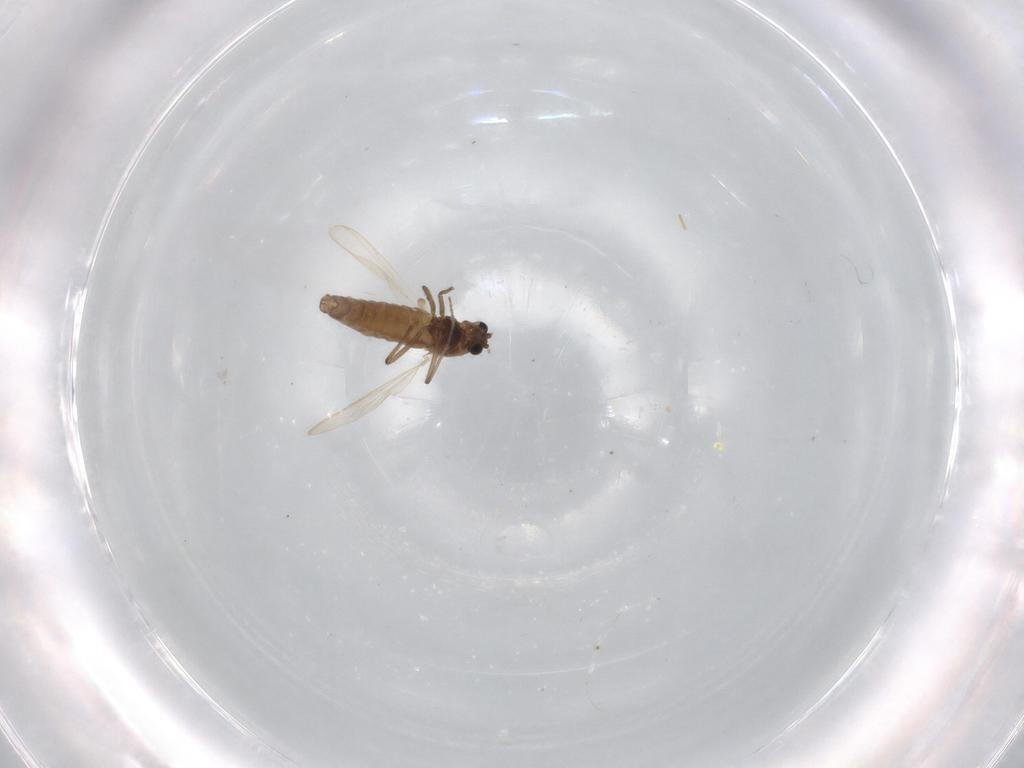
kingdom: Animalia
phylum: Arthropoda
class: Insecta
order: Diptera
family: Chironomidae
